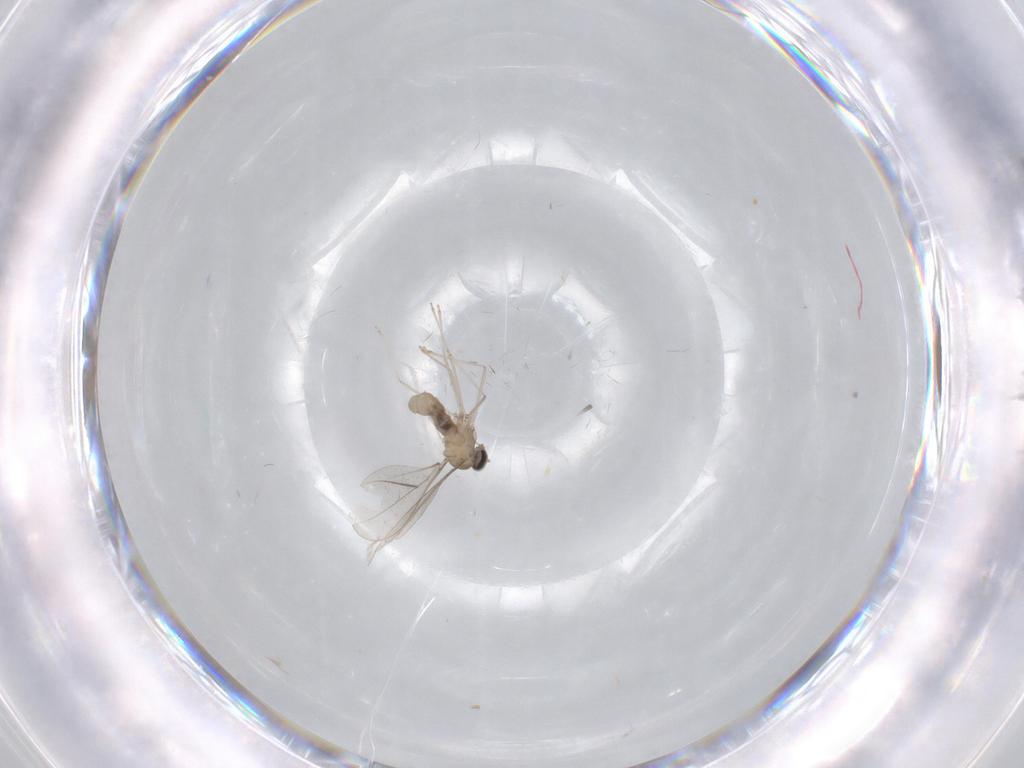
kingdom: Animalia
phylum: Arthropoda
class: Insecta
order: Diptera
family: Cecidomyiidae
